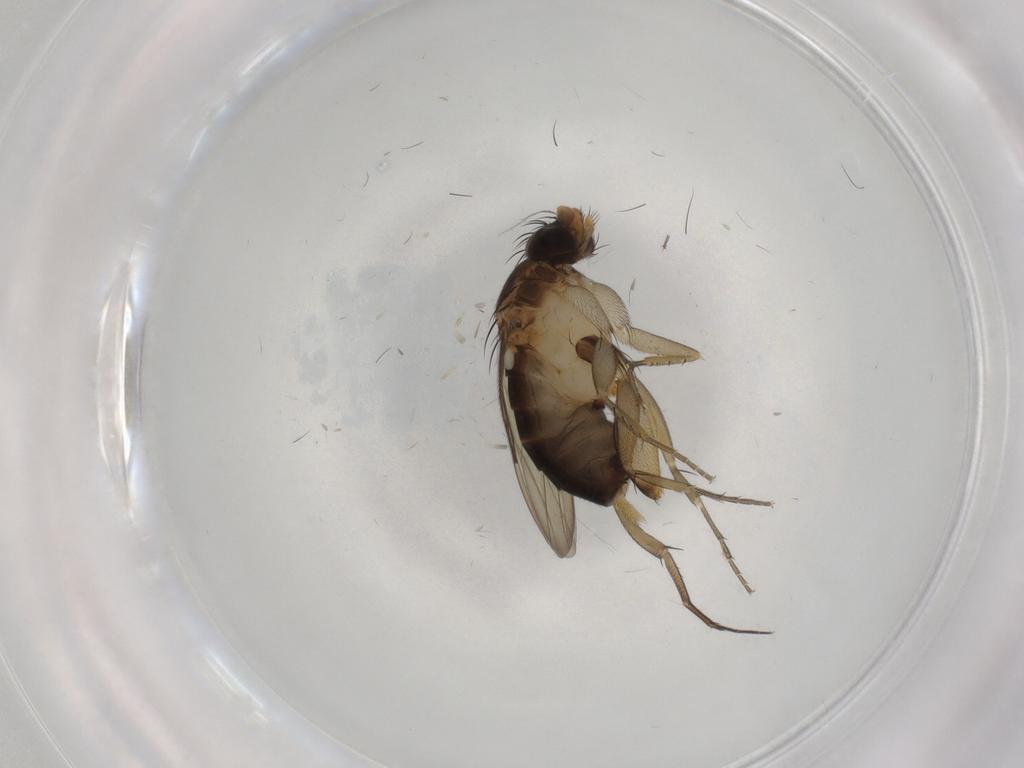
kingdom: Animalia
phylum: Arthropoda
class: Insecta
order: Diptera
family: Phoridae
